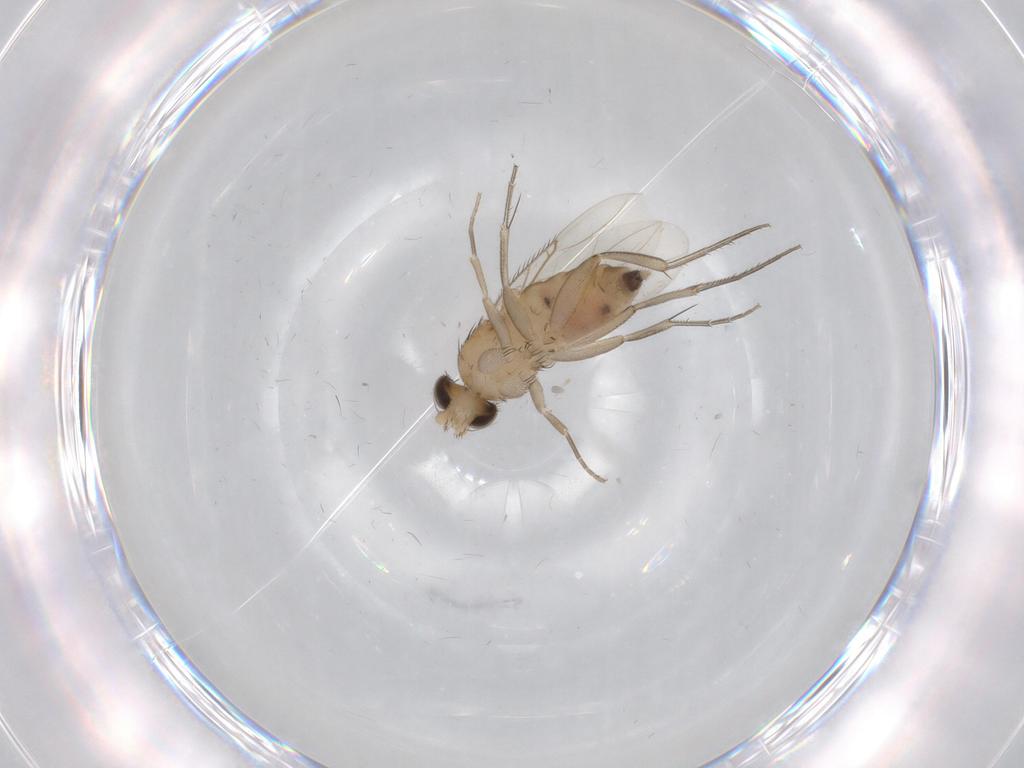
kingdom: Animalia
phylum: Arthropoda
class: Insecta
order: Diptera
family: Phoridae
